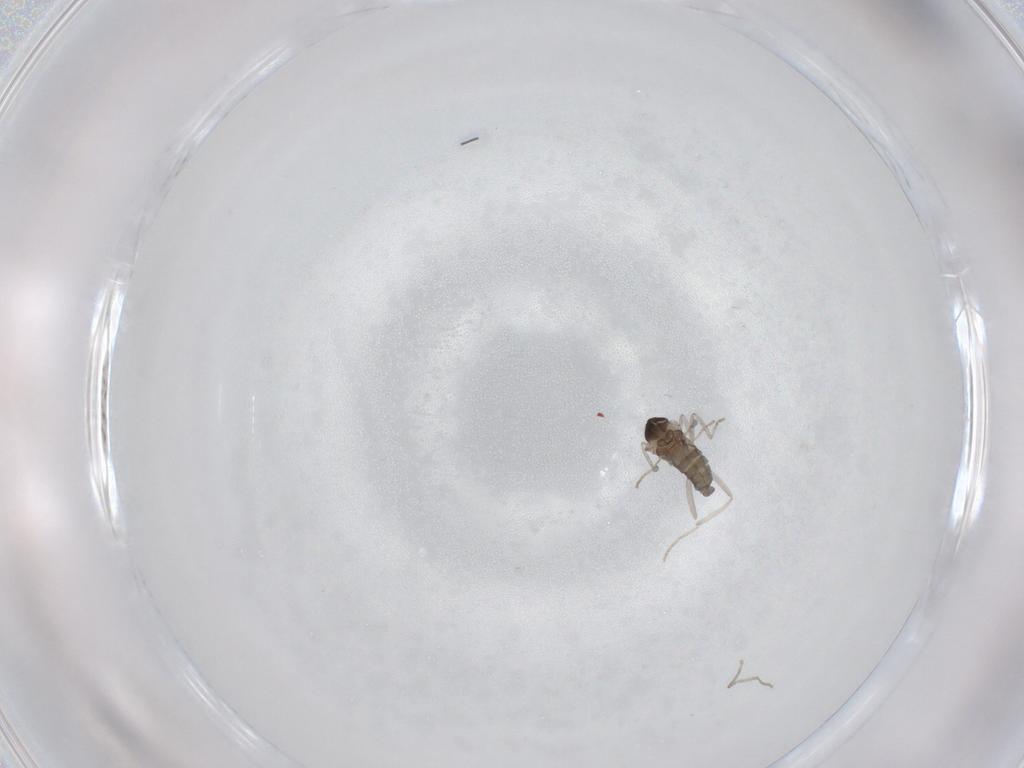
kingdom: Animalia
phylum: Arthropoda
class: Insecta
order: Diptera
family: Cecidomyiidae
